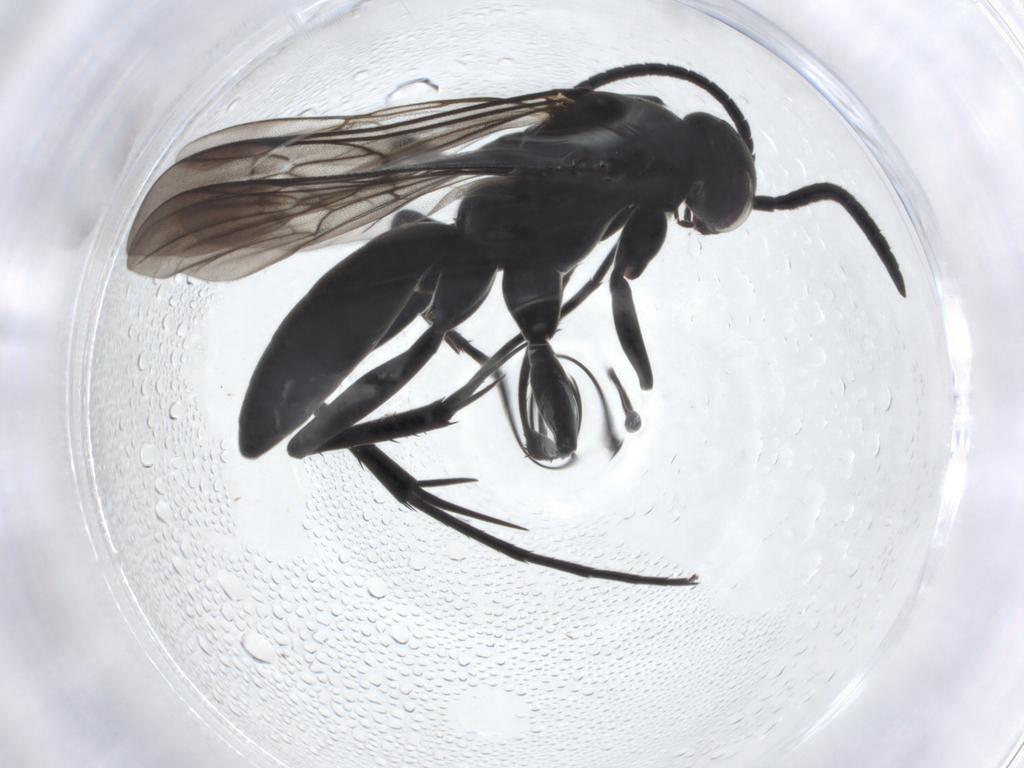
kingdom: Animalia
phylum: Arthropoda
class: Insecta
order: Hymenoptera
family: Pompilidae
